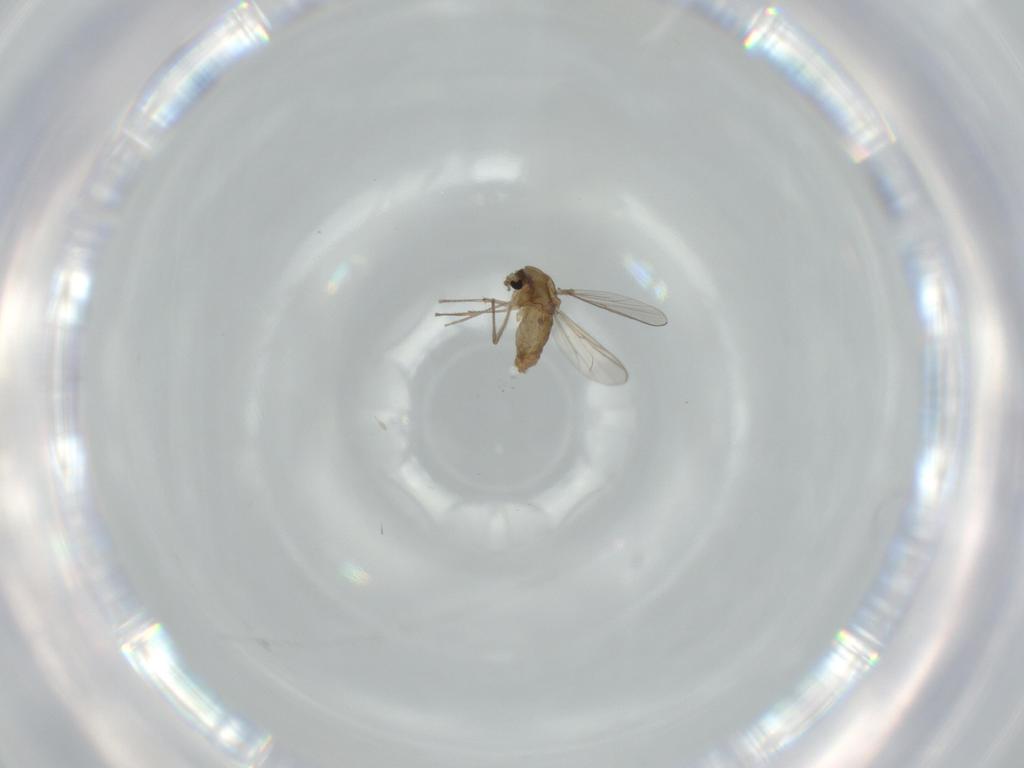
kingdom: Animalia
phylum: Arthropoda
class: Insecta
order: Diptera
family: Chironomidae
